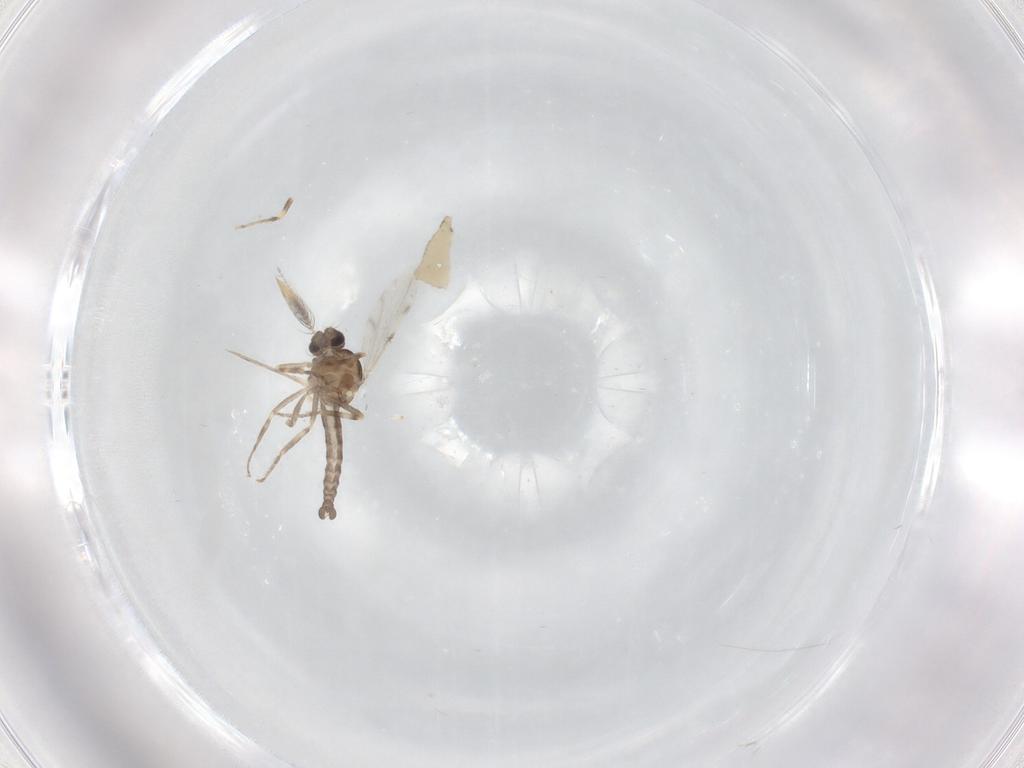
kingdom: Animalia
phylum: Arthropoda
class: Insecta
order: Diptera
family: Ceratopogonidae
